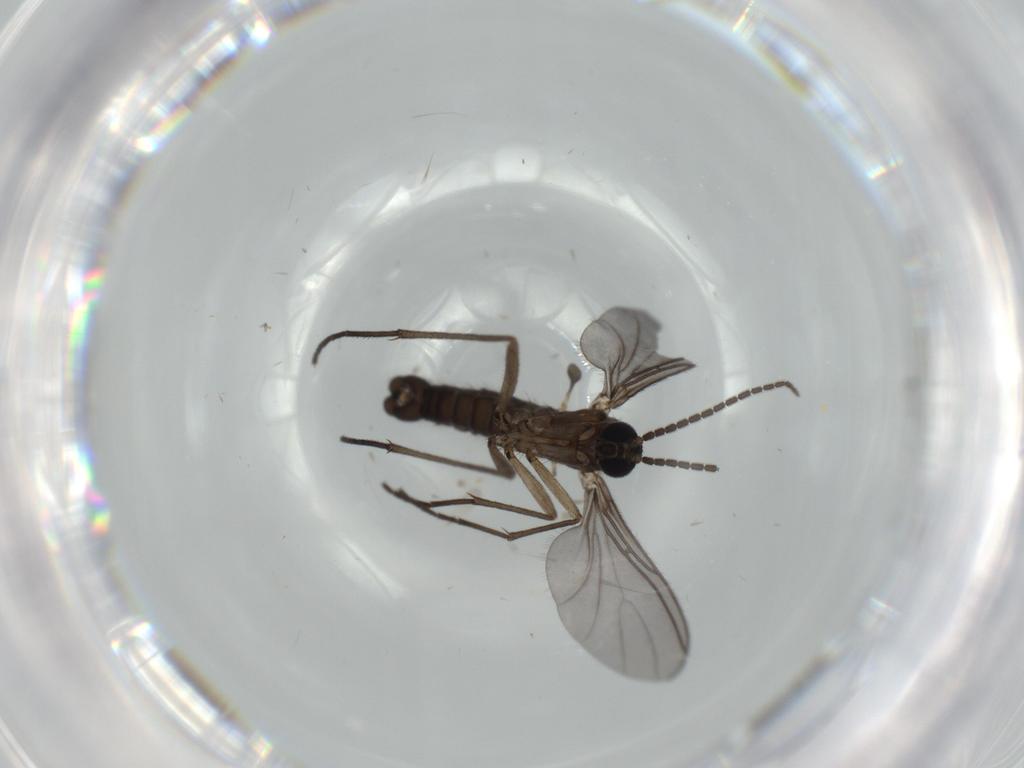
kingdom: Animalia
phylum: Arthropoda
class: Insecta
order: Diptera
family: Sciaridae
